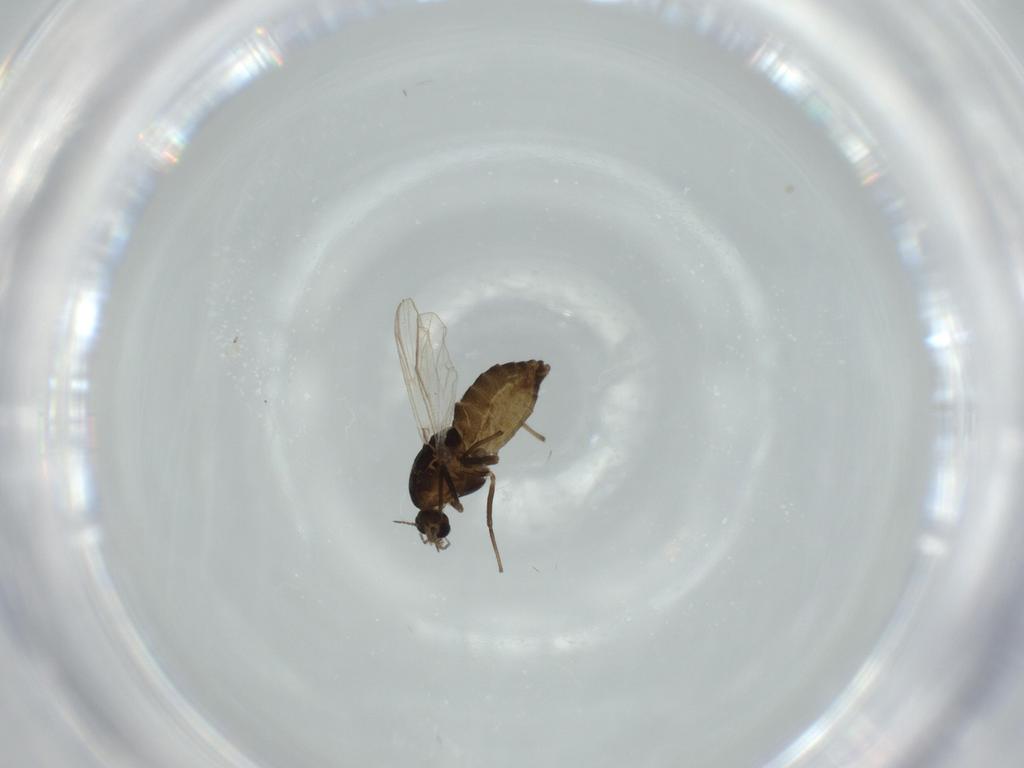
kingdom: Animalia
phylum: Arthropoda
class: Insecta
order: Diptera
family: Chironomidae
